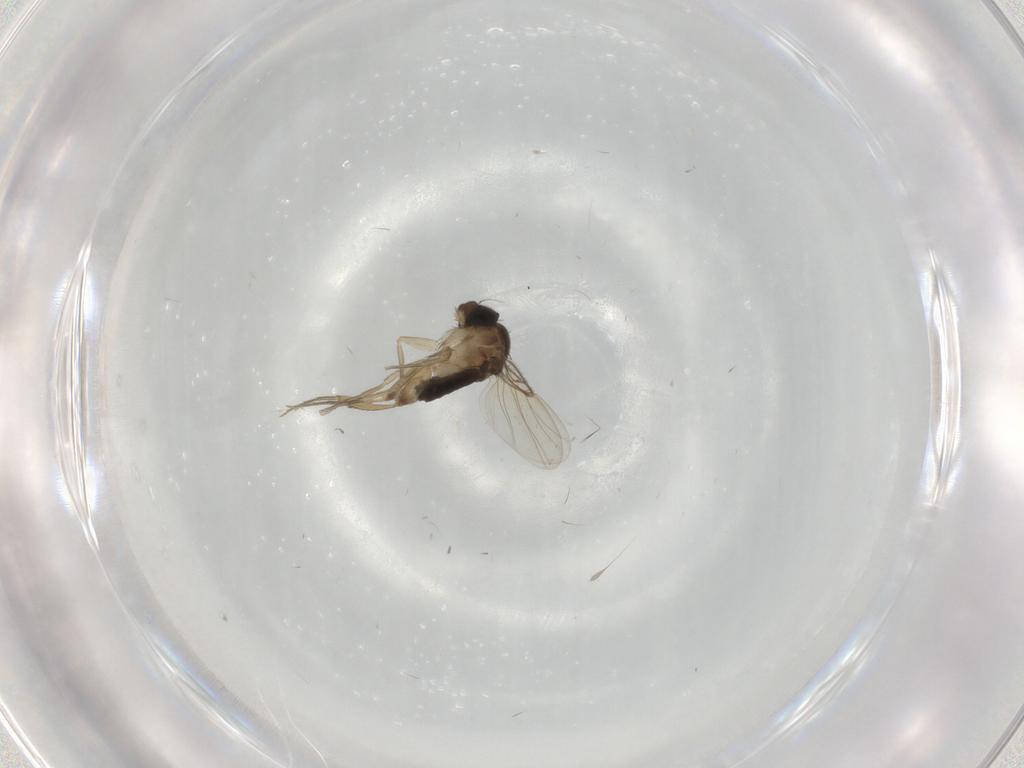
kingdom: Animalia
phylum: Arthropoda
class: Insecta
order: Diptera
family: Phoridae
